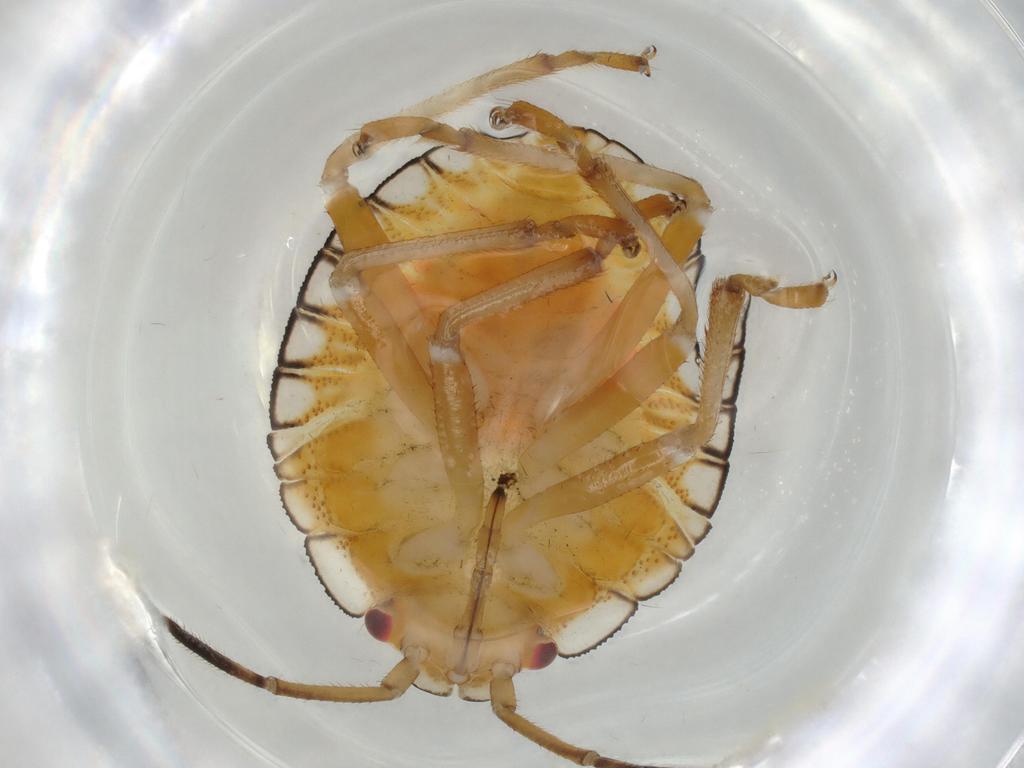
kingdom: Animalia
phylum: Arthropoda
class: Insecta
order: Hemiptera
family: Pentatomidae
